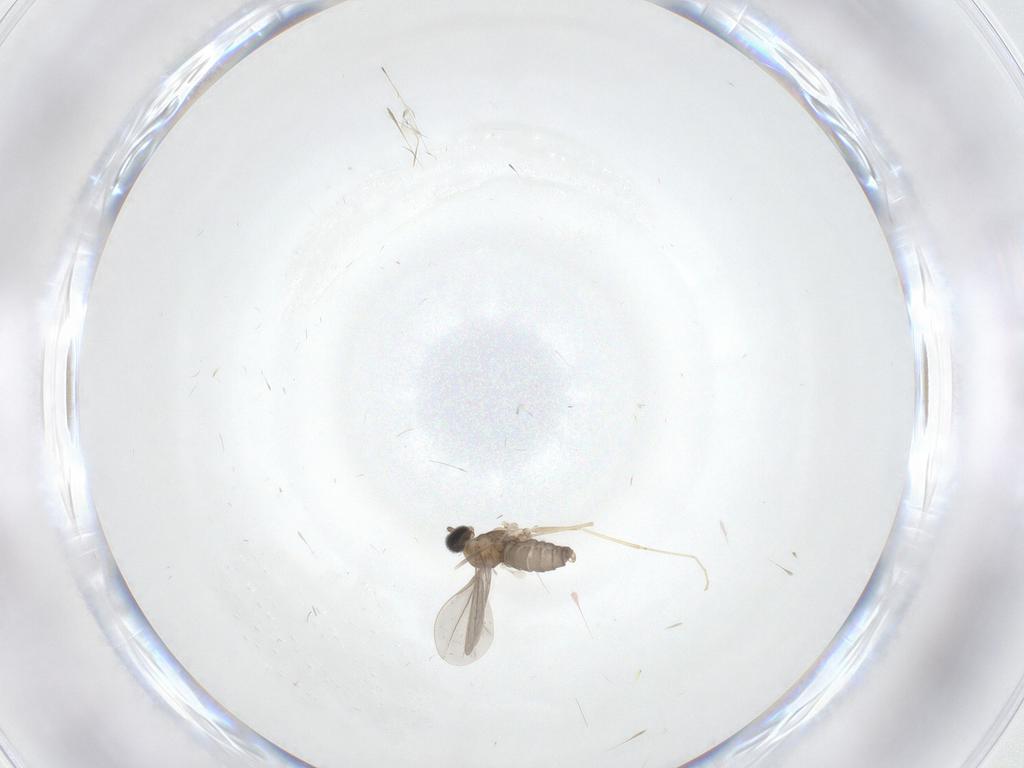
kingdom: Animalia
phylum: Arthropoda
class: Insecta
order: Diptera
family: Cecidomyiidae
